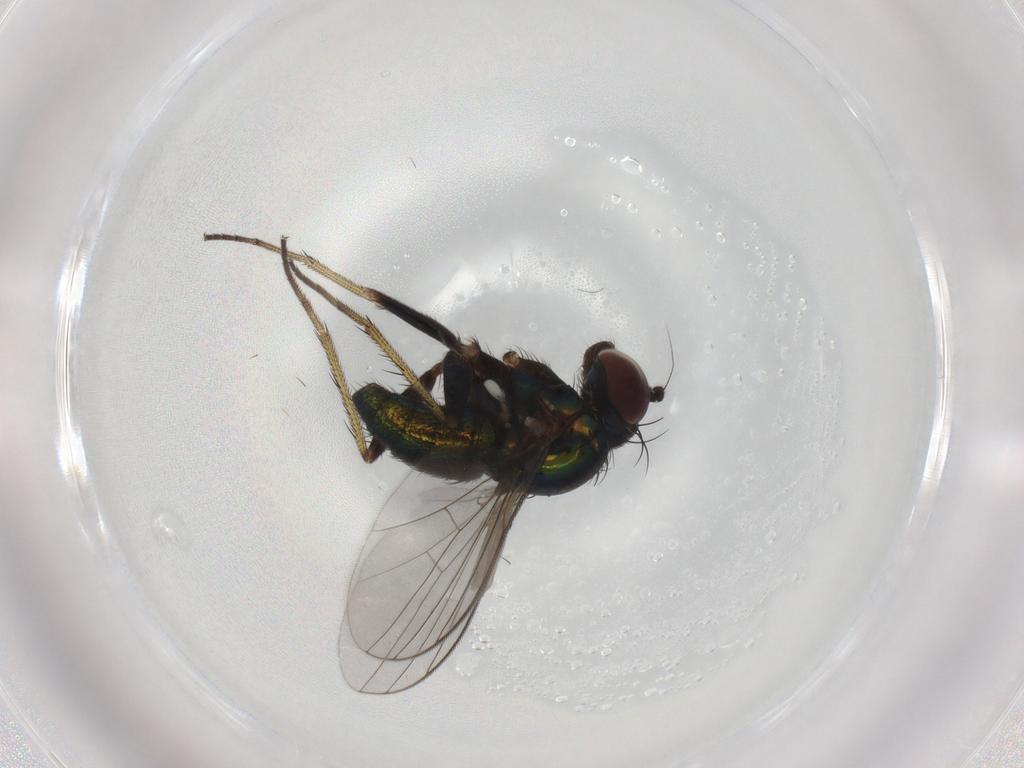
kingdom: Animalia
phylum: Arthropoda
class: Insecta
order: Diptera
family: Dolichopodidae
